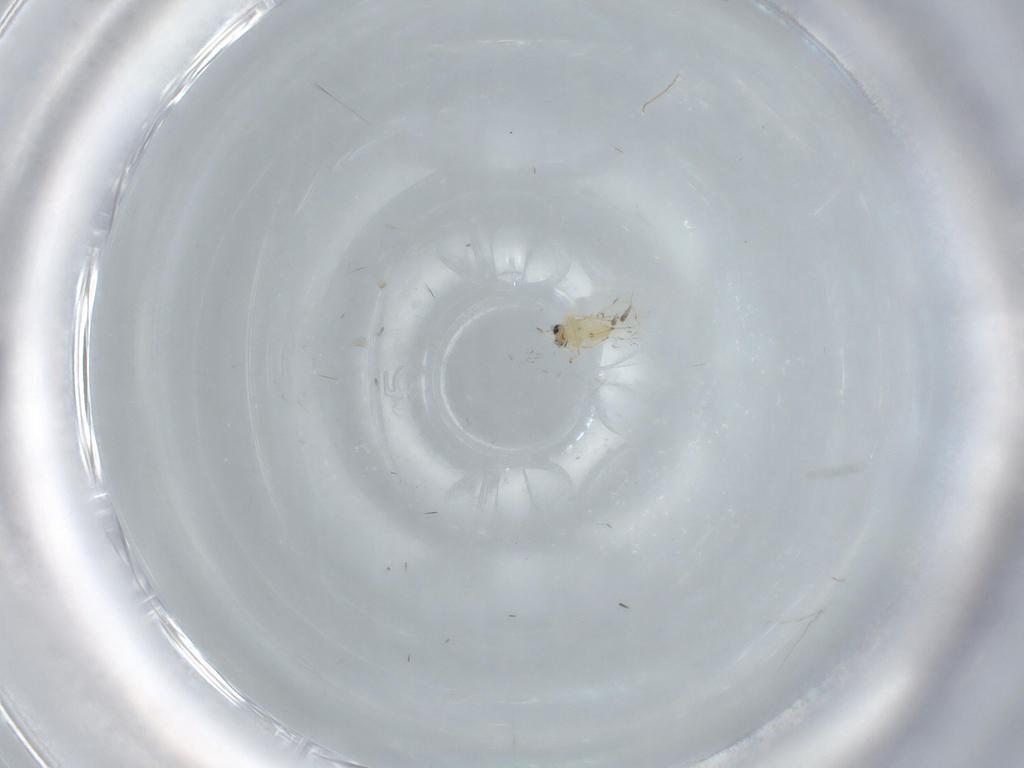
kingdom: Animalia
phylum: Arthropoda
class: Insecta
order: Hymenoptera
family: Trichogrammatidae
